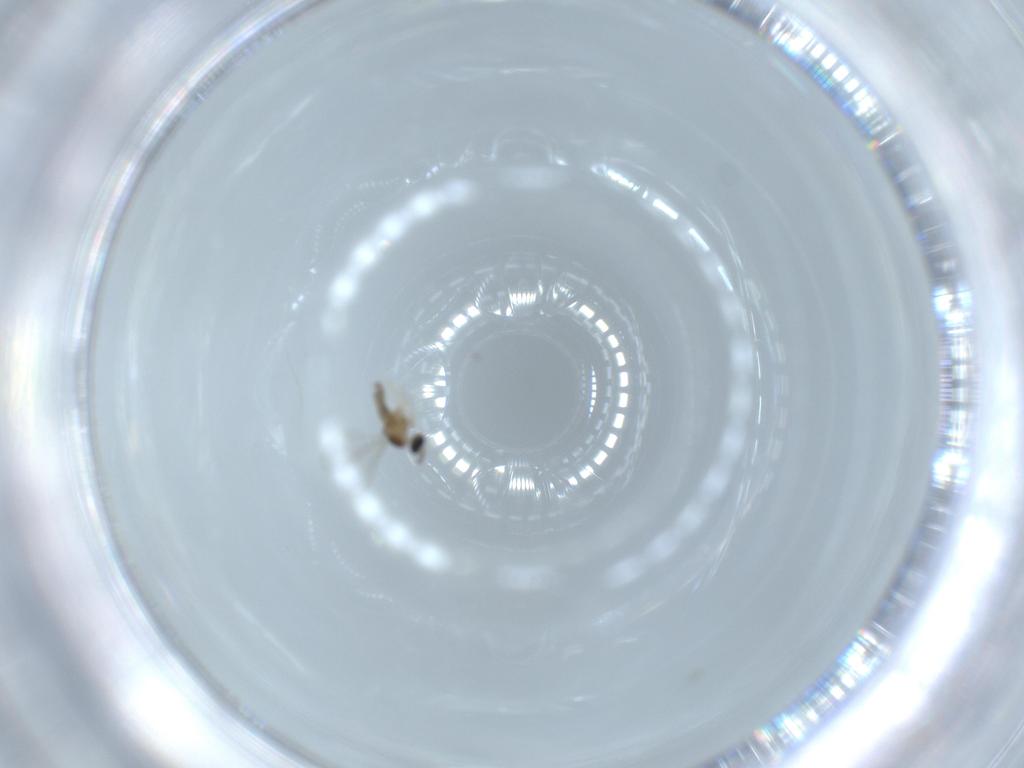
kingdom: Animalia
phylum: Arthropoda
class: Insecta
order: Diptera
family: Cecidomyiidae
